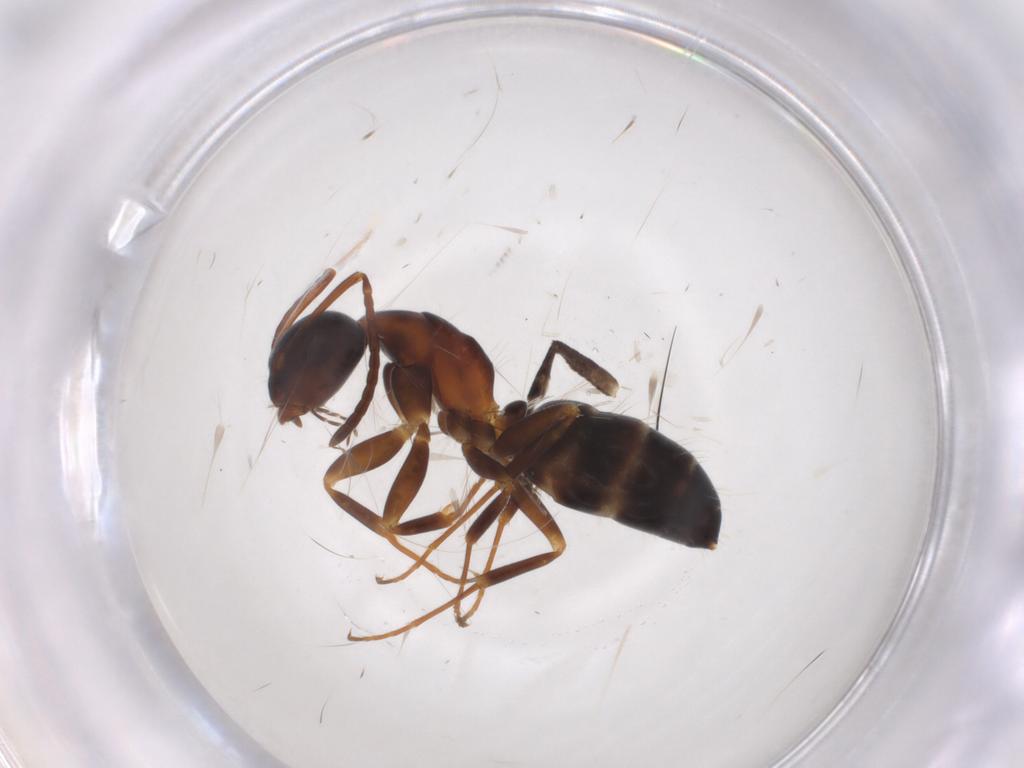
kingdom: Animalia
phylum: Arthropoda
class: Insecta
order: Hymenoptera
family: Formicidae
